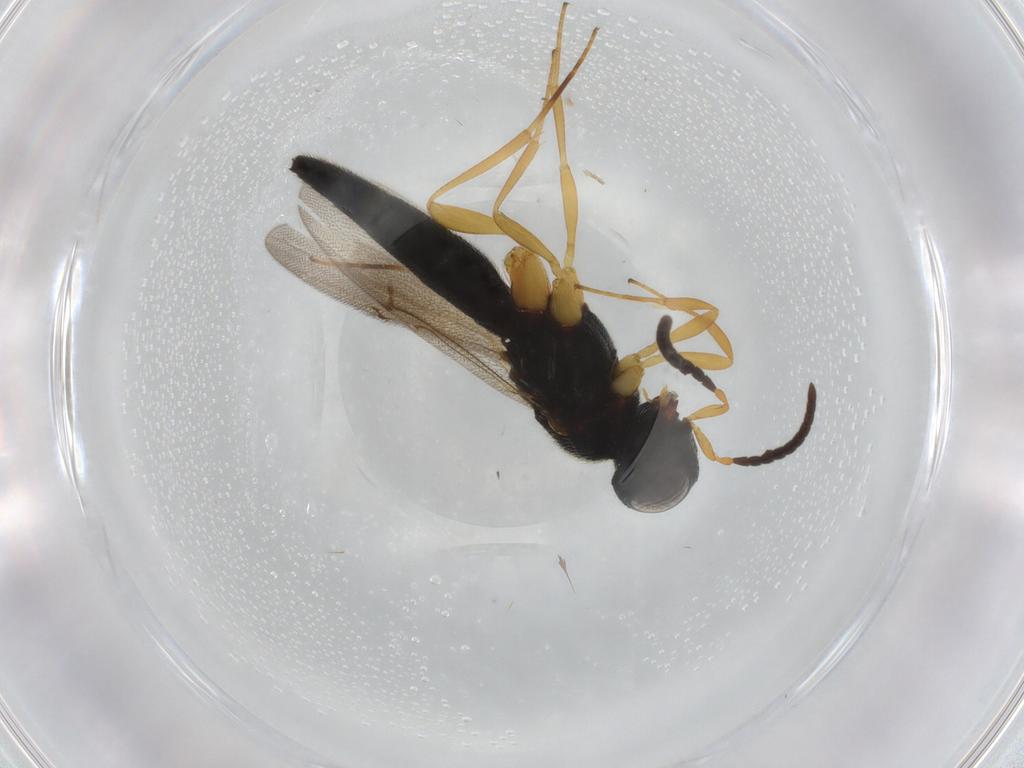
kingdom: Animalia
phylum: Arthropoda
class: Insecta
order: Hymenoptera
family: Scelionidae
